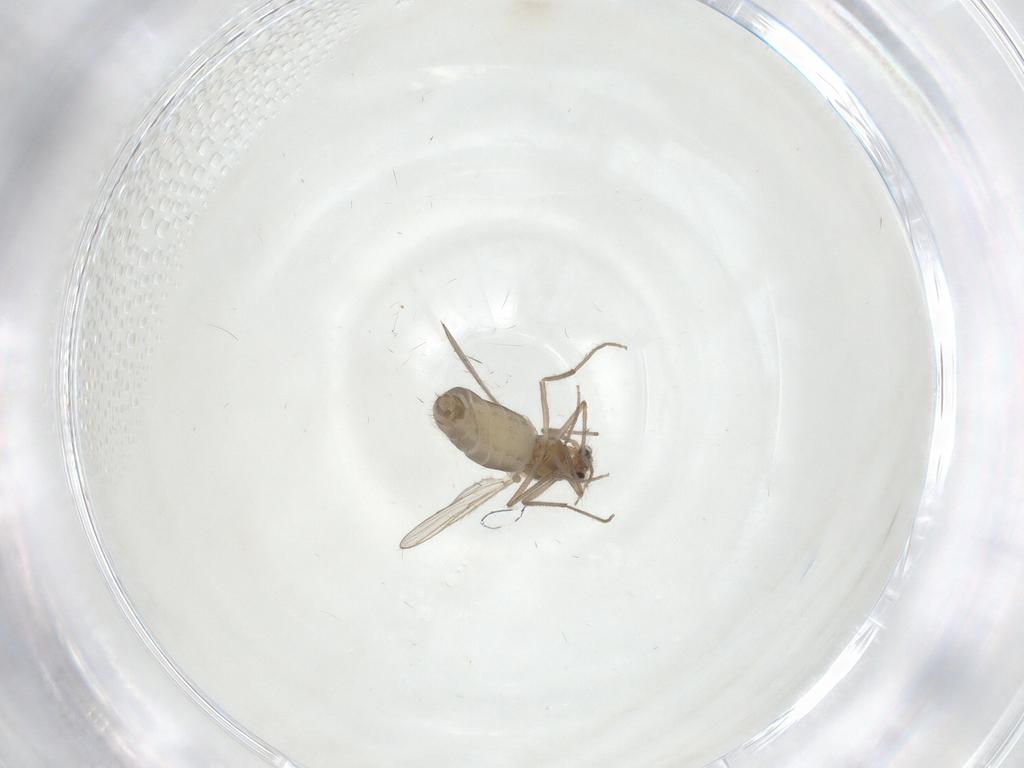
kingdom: Animalia
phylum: Arthropoda
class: Insecta
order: Diptera
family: Chironomidae
